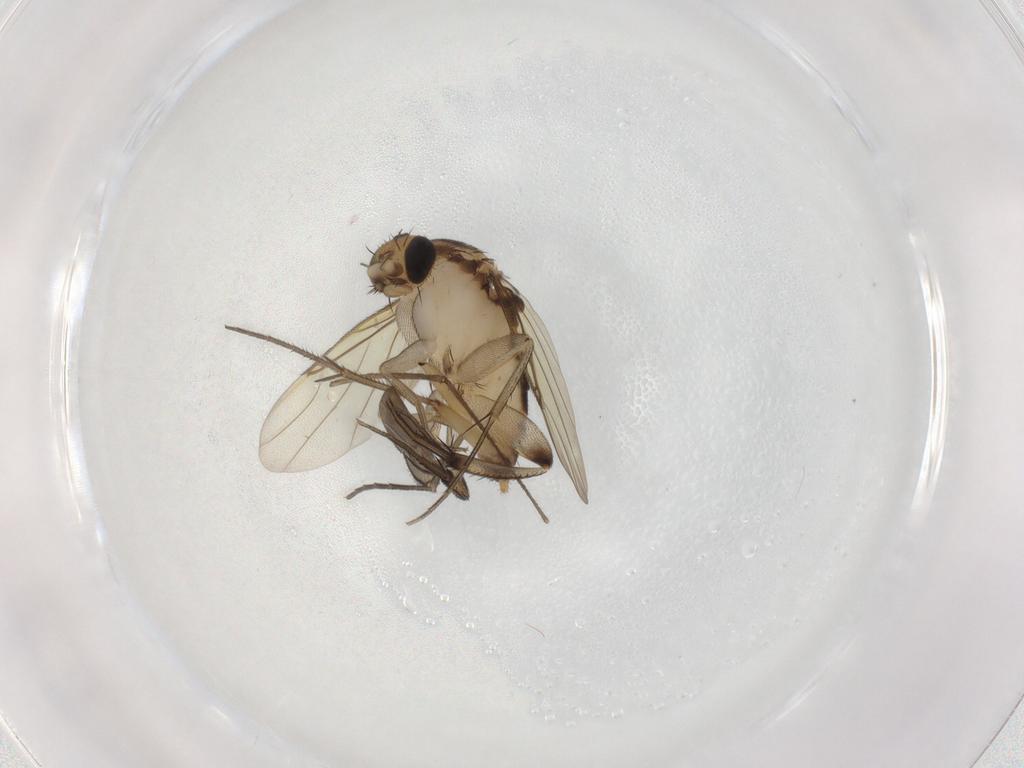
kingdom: Animalia
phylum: Arthropoda
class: Insecta
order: Diptera
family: Phoridae
